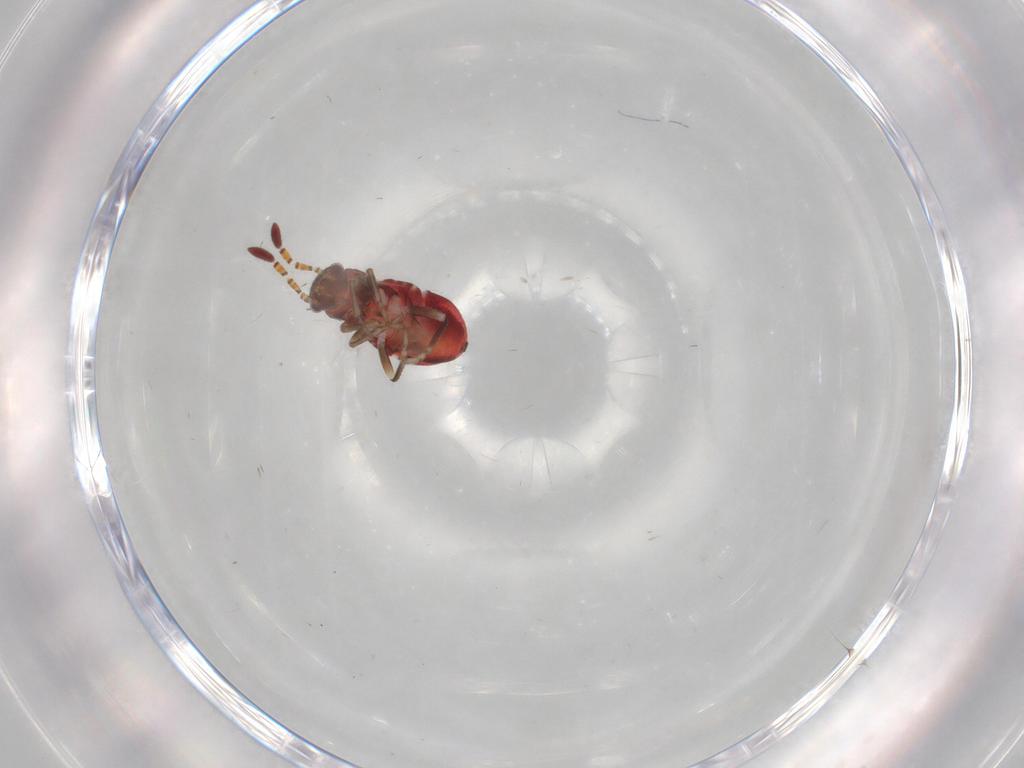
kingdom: Animalia
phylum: Arthropoda
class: Insecta
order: Hemiptera
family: Rhyparochromidae
